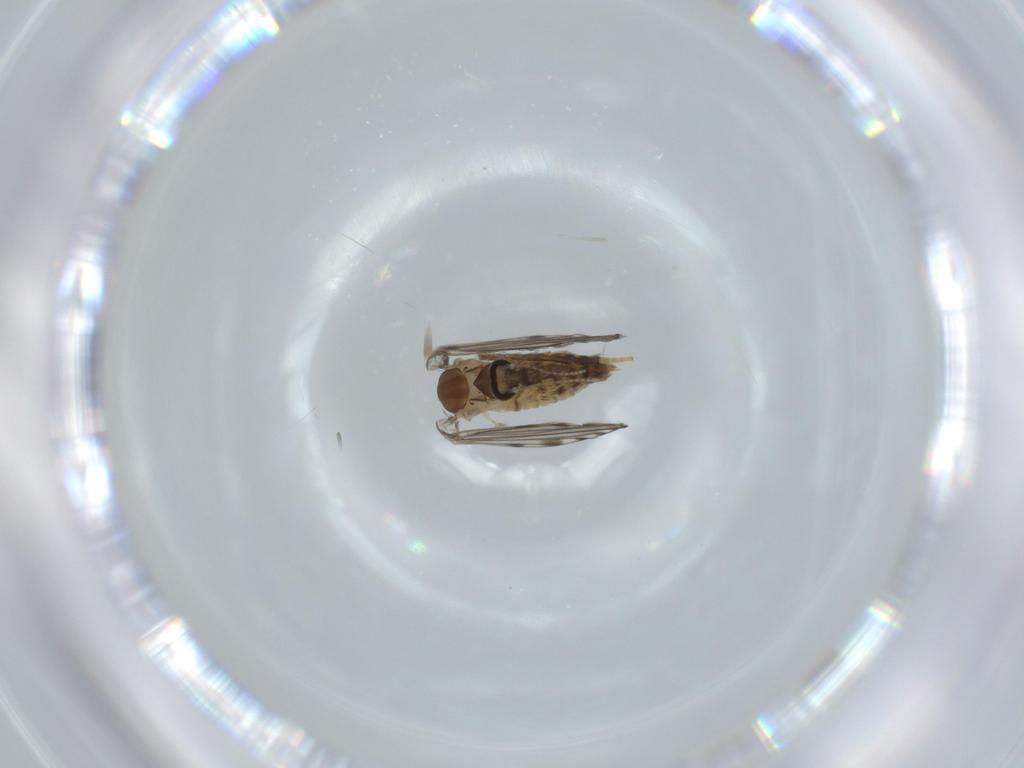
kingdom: Animalia
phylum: Arthropoda
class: Insecta
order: Diptera
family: Psychodidae
